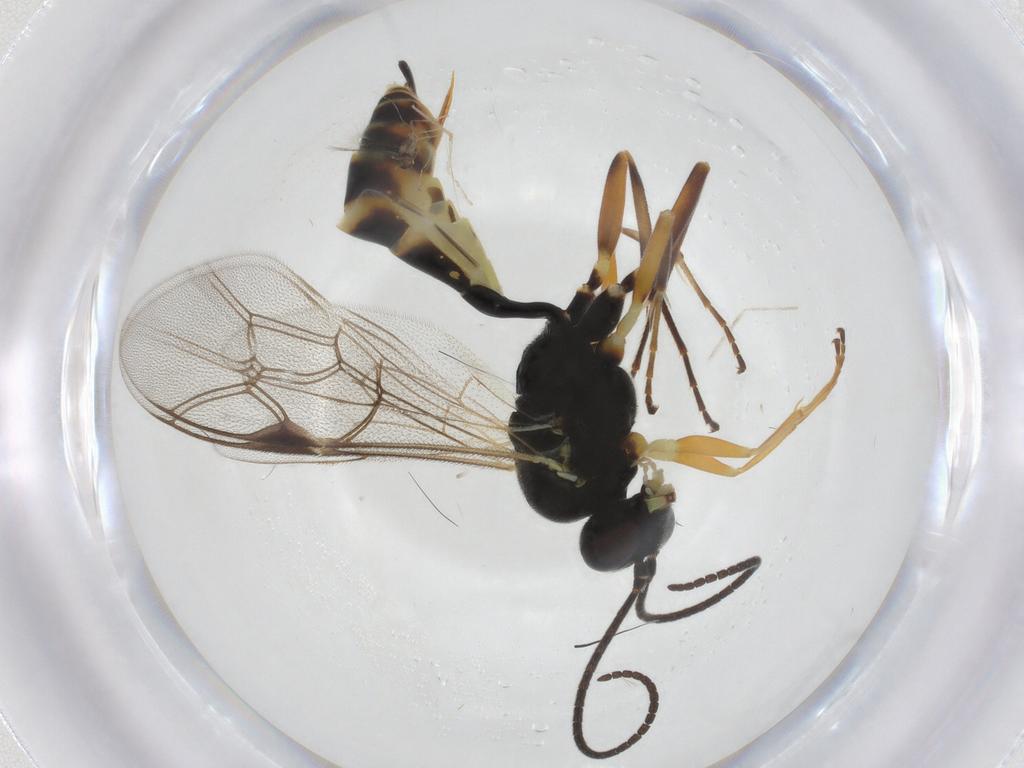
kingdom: Animalia
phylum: Arthropoda
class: Insecta
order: Hymenoptera
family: Ichneumonidae
